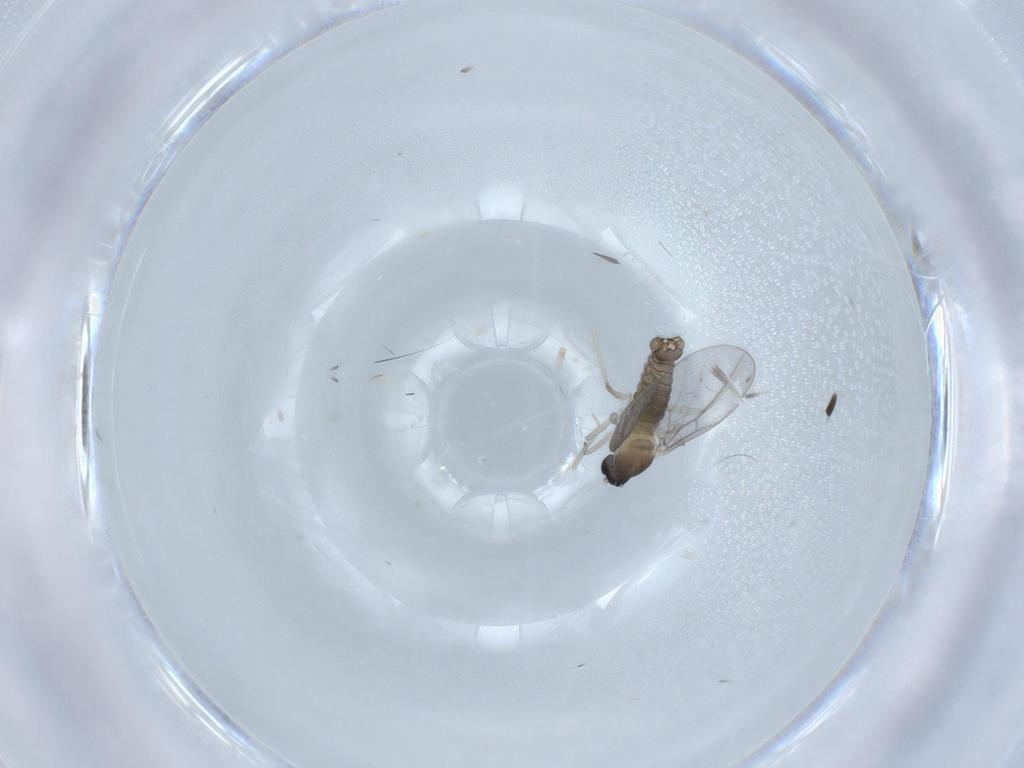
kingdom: Animalia
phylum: Arthropoda
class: Insecta
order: Diptera
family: Cecidomyiidae
